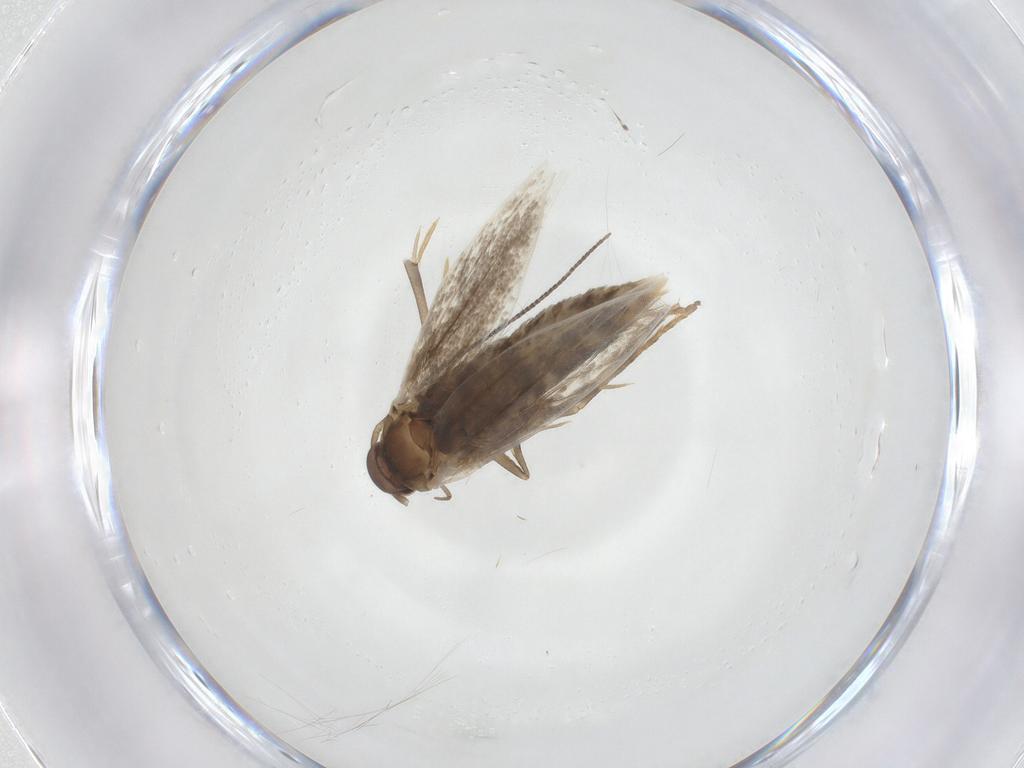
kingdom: Animalia
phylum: Arthropoda
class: Insecta
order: Lepidoptera
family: Elachistidae
